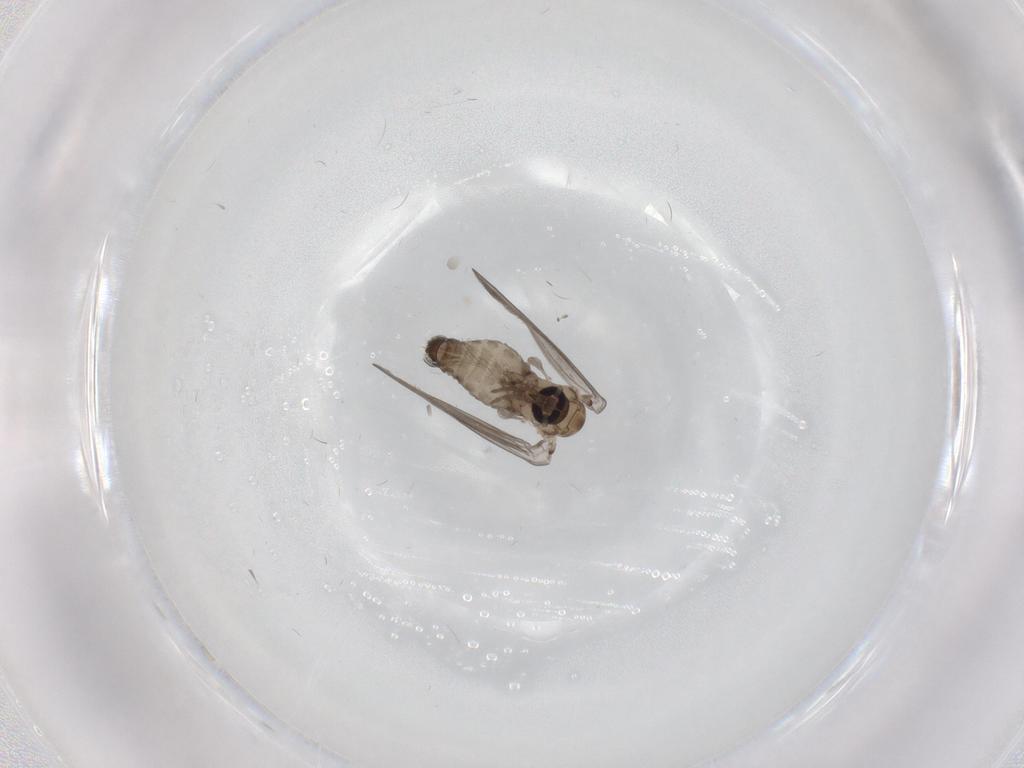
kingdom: Animalia
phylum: Arthropoda
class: Insecta
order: Diptera
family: Psychodidae
